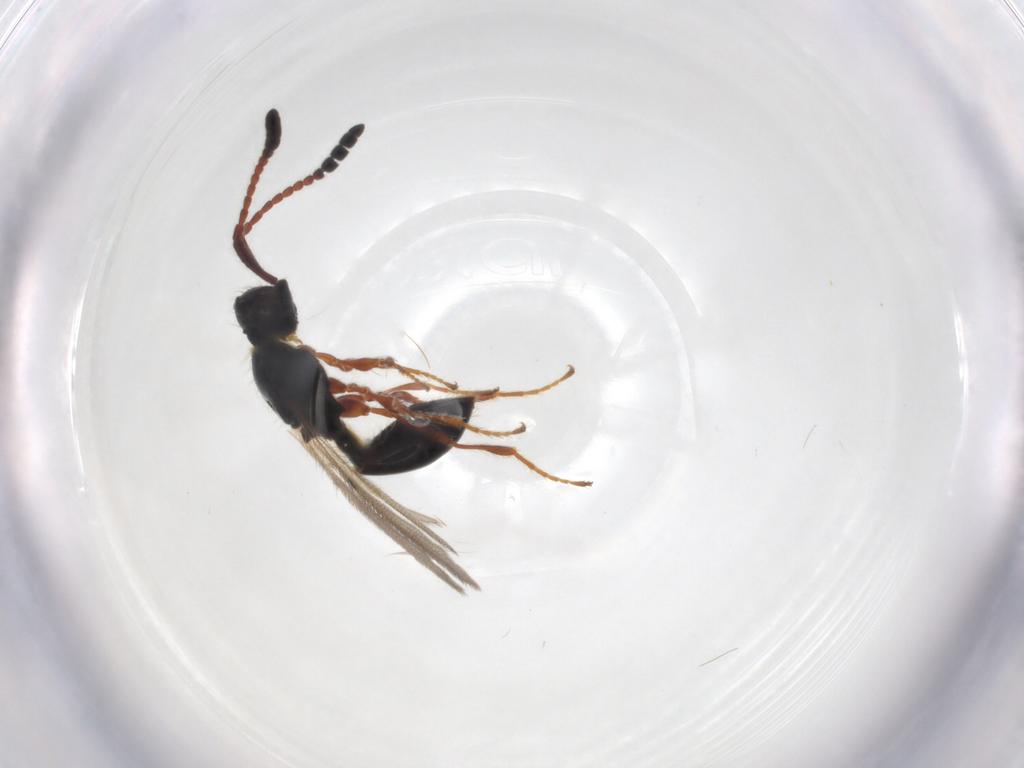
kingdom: Animalia
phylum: Arthropoda
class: Insecta
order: Hymenoptera
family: Diapriidae
